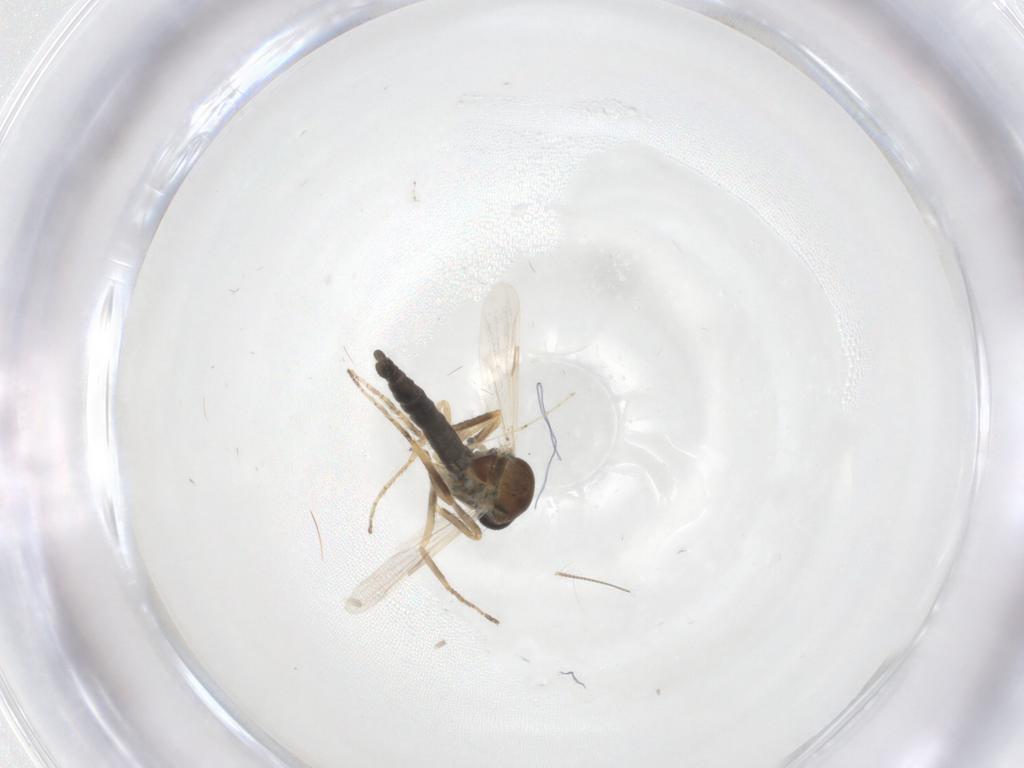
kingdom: Animalia
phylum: Arthropoda
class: Insecta
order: Diptera
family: Ceratopogonidae
